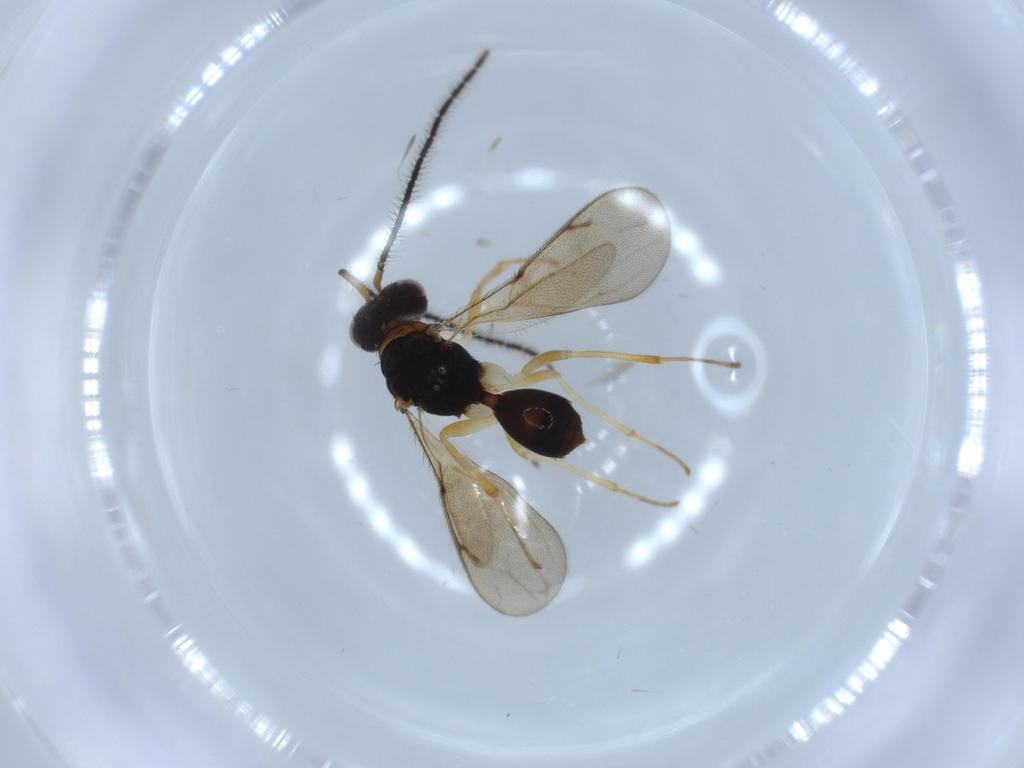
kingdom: Animalia
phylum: Arthropoda
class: Insecta
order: Hymenoptera
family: Diparidae
